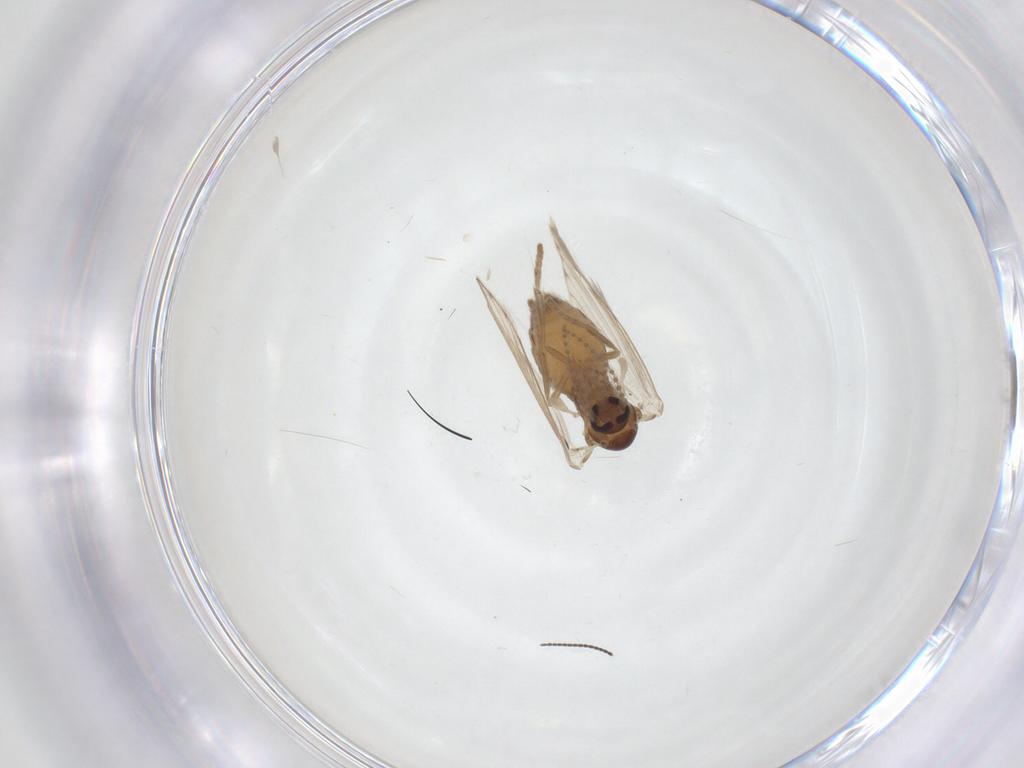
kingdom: Animalia
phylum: Arthropoda
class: Insecta
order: Diptera
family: Psychodidae
